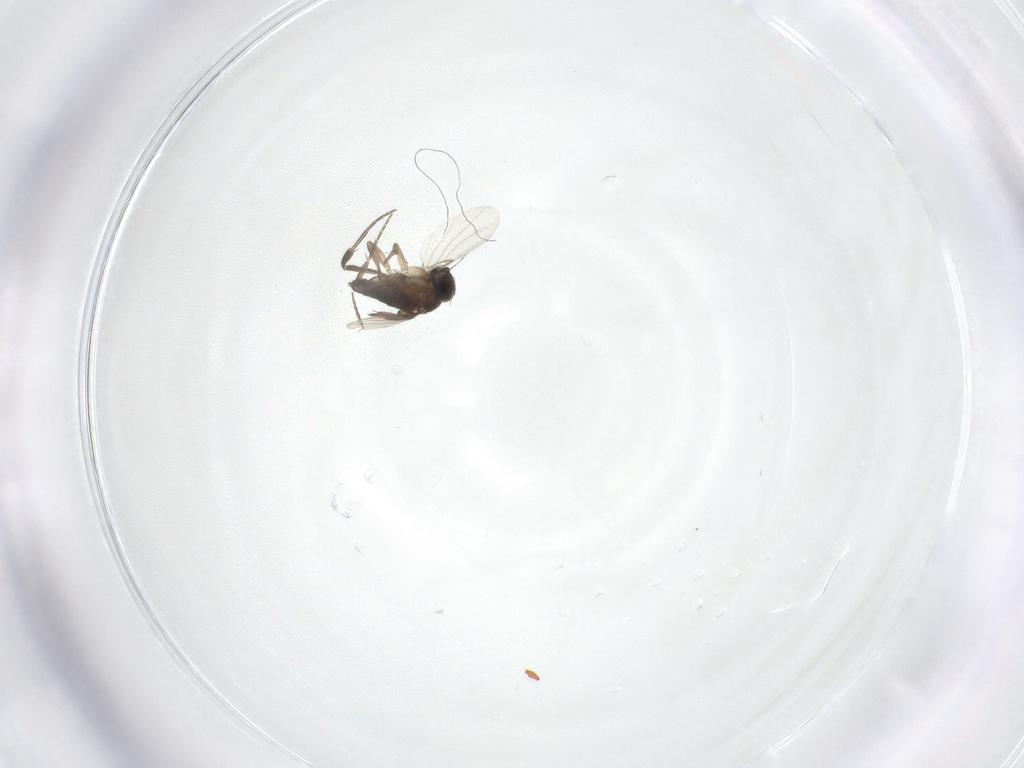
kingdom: Animalia
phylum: Arthropoda
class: Insecta
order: Diptera
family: Phoridae
